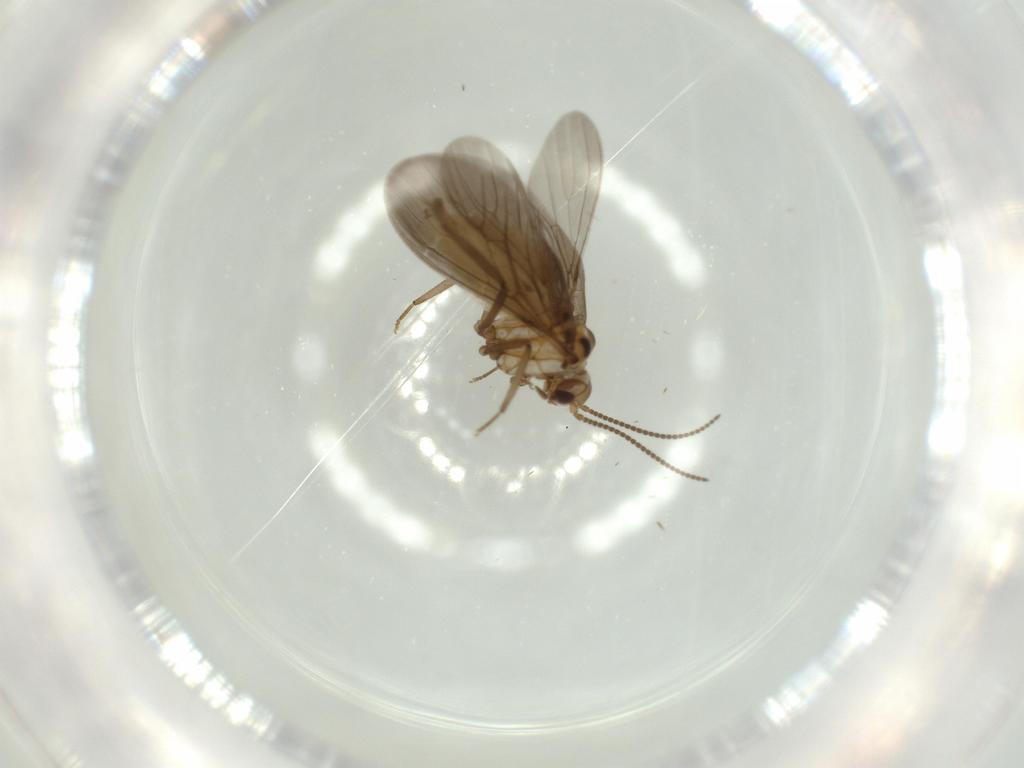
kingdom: Animalia
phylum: Arthropoda
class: Insecta
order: Neuroptera
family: Coniopterygidae
